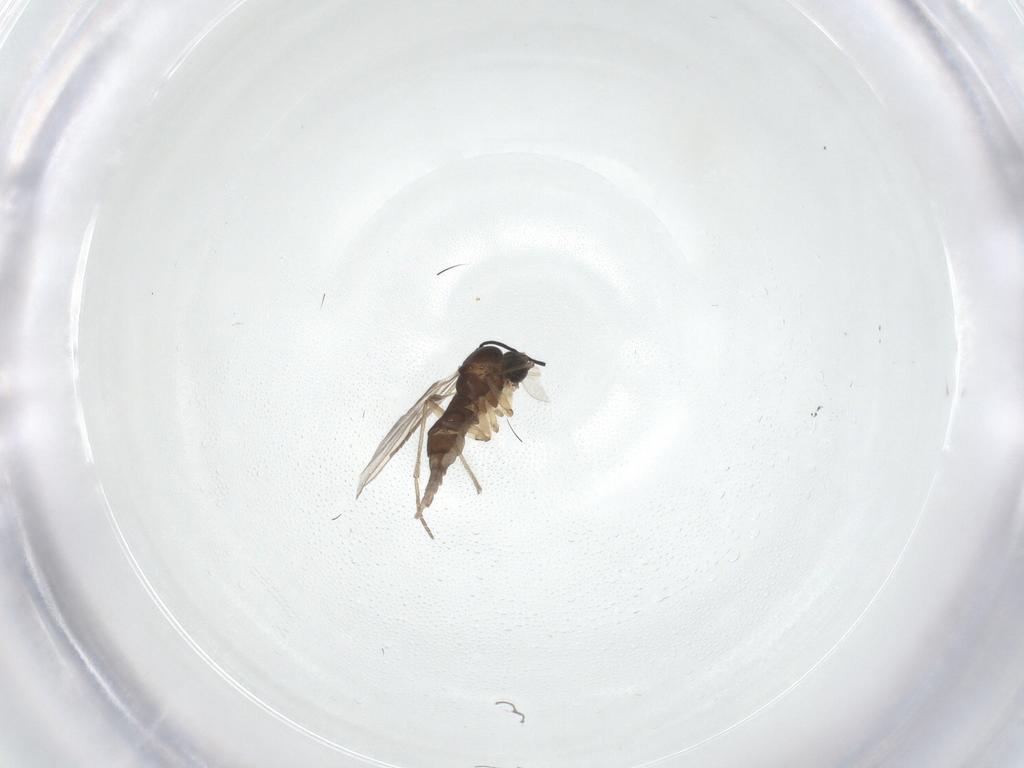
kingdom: Animalia
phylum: Arthropoda
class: Insecta
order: Diptera
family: Sciaridae
